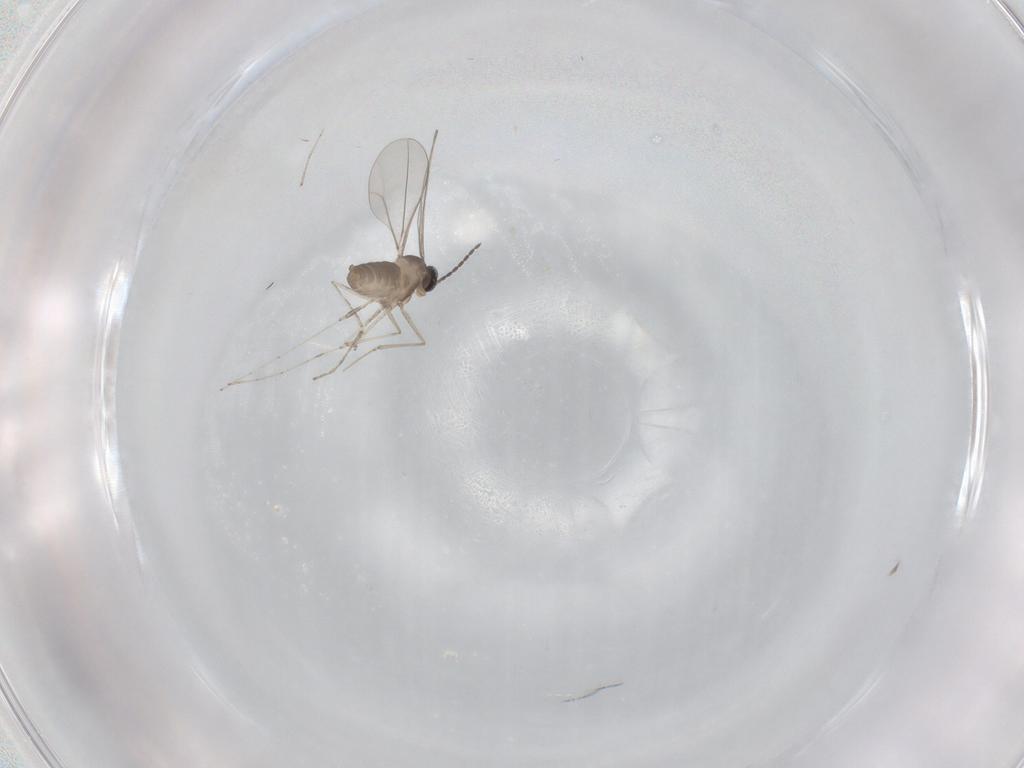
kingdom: Animalia
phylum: Arthropoda
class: Insecta
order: Diptera
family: Cecidomyiidae
